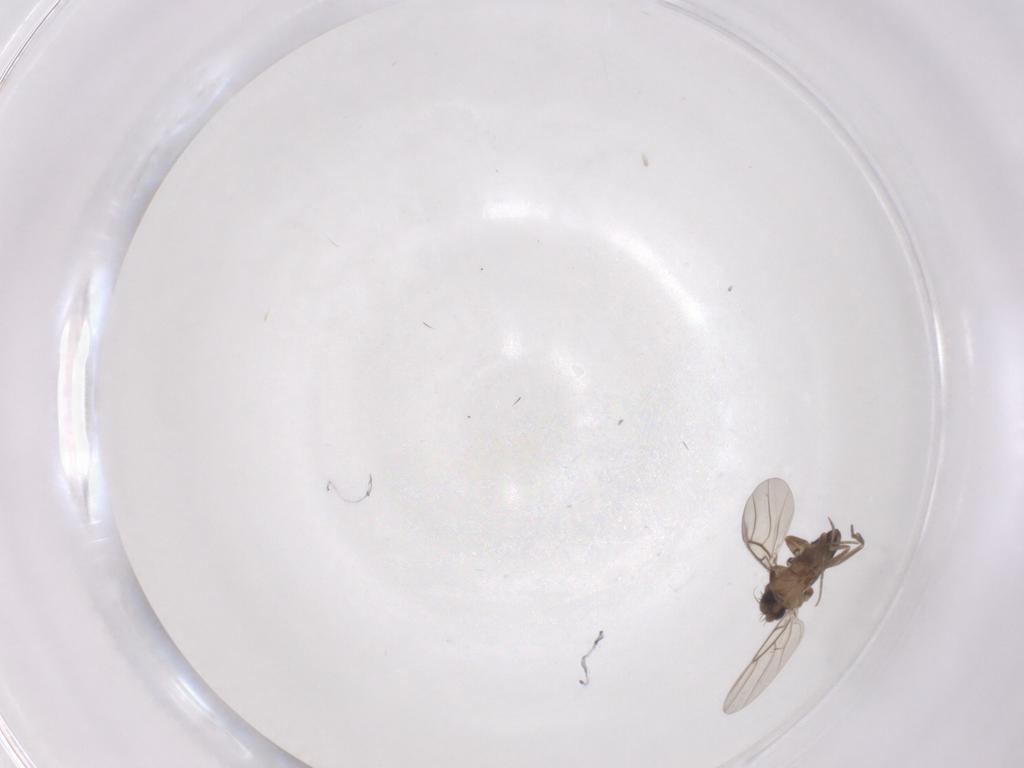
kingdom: Animalia
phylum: Arthropoda
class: Insecta
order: Diptera
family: Phoridae
